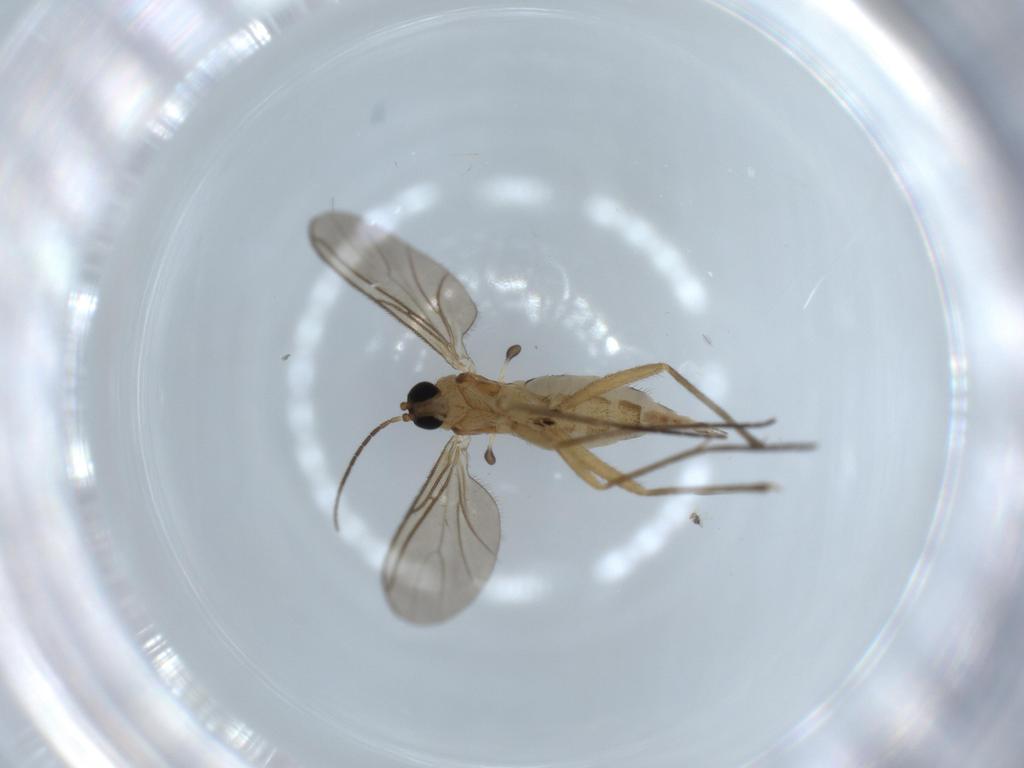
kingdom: Animalia
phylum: Arthropoda
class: Insecta
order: Diptera
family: Sciaridae
